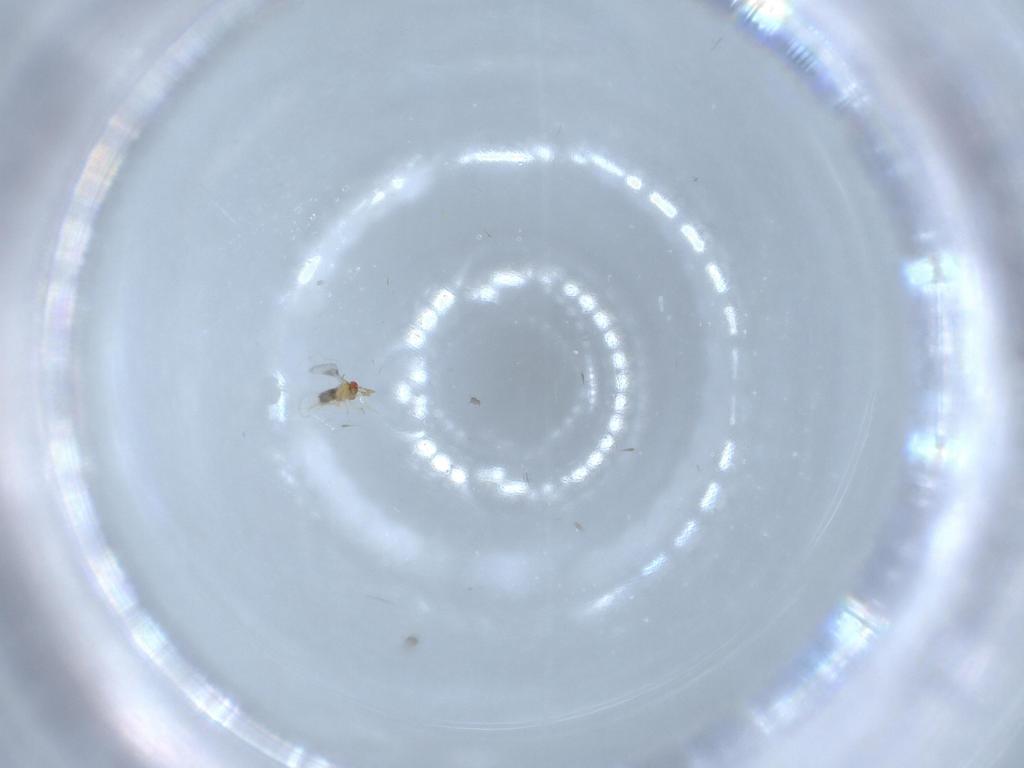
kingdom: Animalia
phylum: Arthropoda
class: Insecta
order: Hymenoptera
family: Trichogrammatidae
